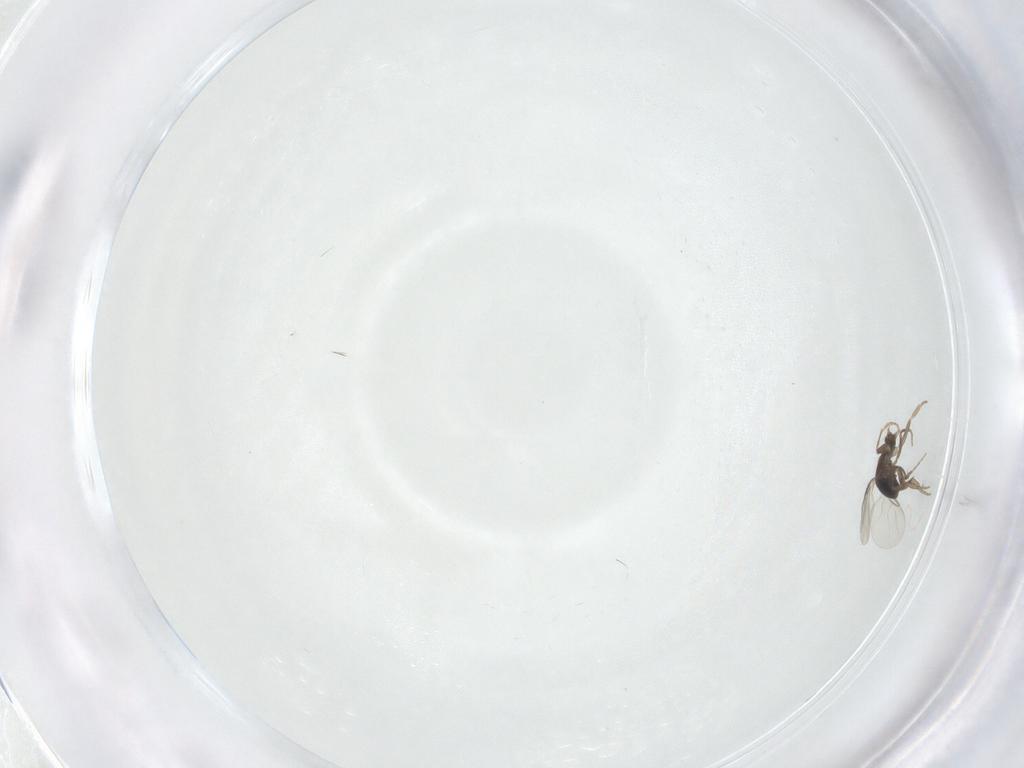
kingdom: Animalia
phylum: Arthropoda
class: Insecta
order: Diptera
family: Phoridae
